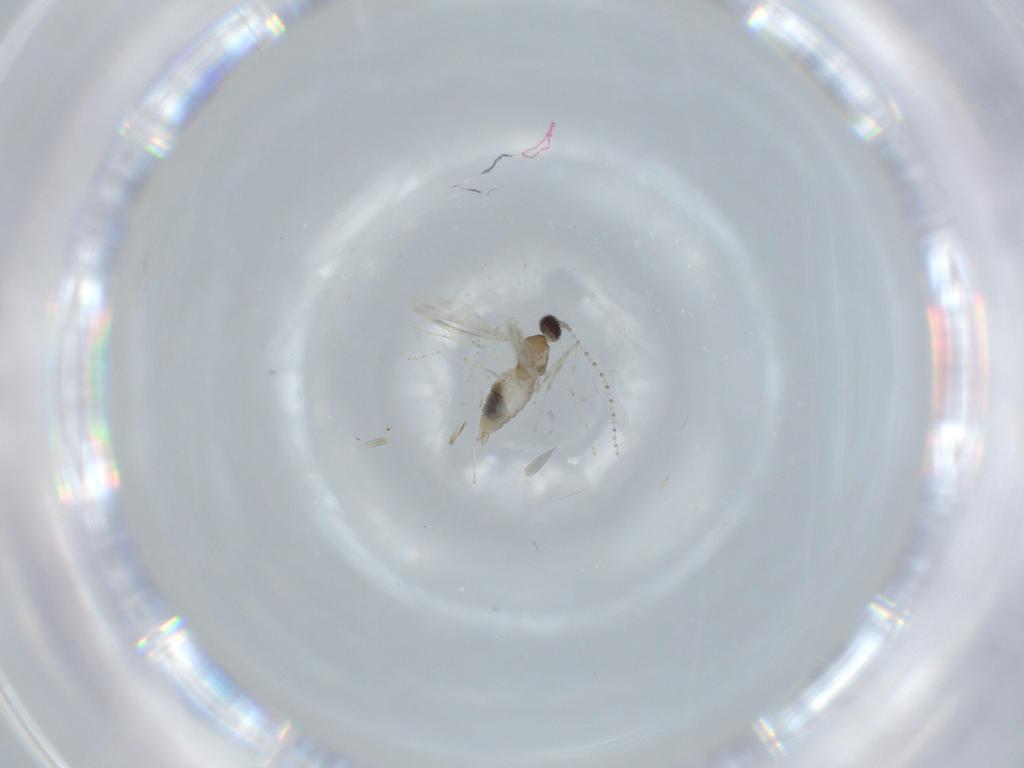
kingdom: Animalia
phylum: Arthropoda
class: Insecta
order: Diptera
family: Cecidomyiidae
